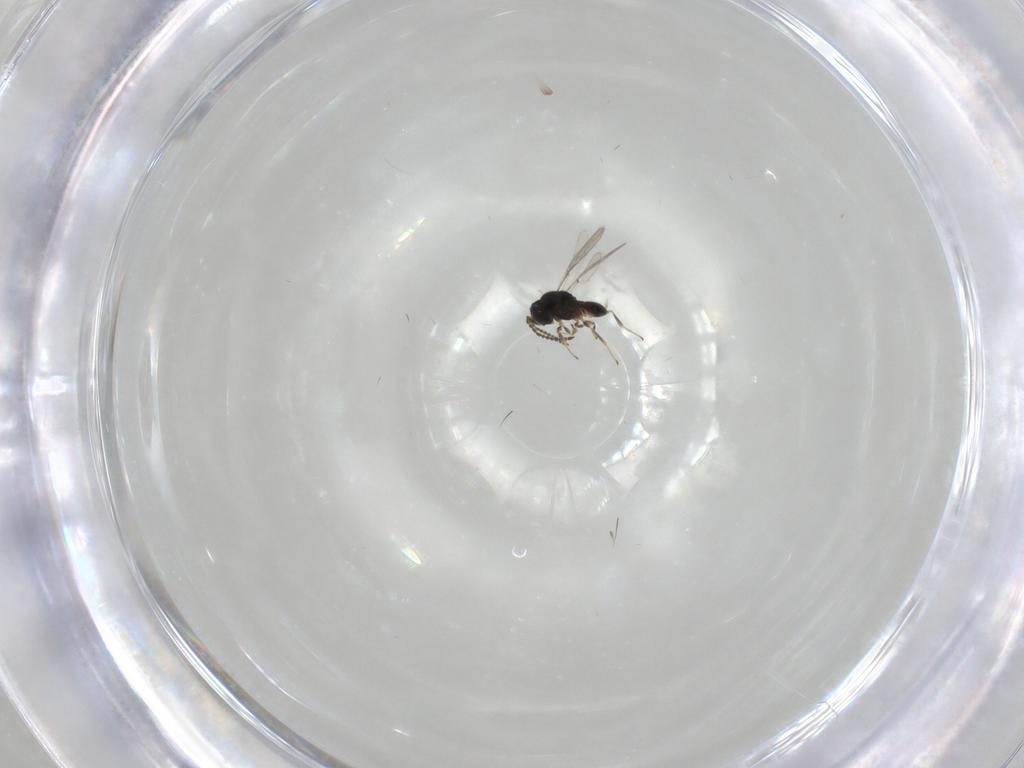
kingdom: Animalia
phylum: Arthropoda
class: Insecta
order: Hymenoptera
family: Scelionidae
